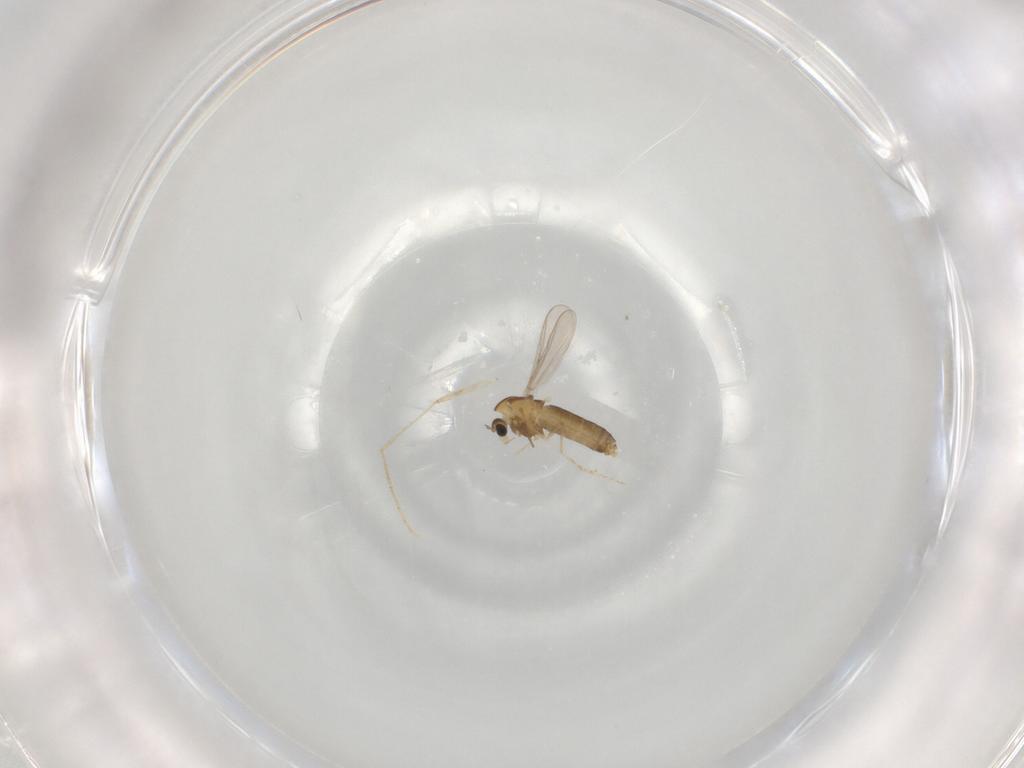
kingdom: Animalia
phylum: Arthropoda
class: Insecta
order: Diptera
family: Psychodidae
